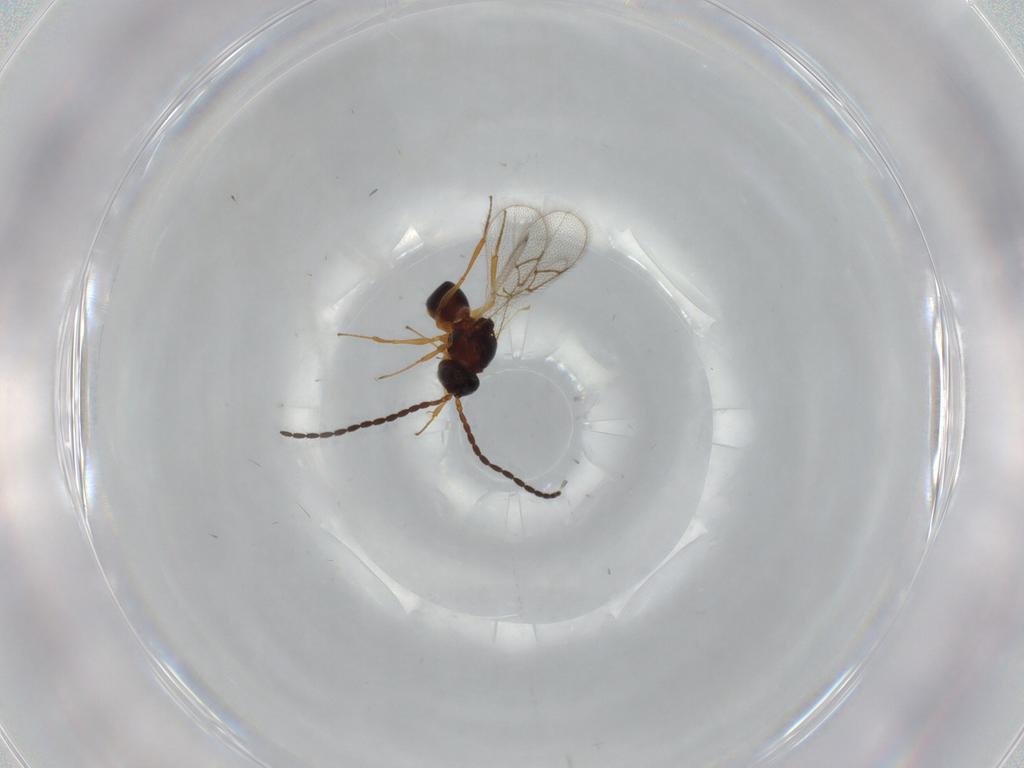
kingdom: Animalia
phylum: Arthropoda
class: Insecta
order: Hymenoptera
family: Figitidae
